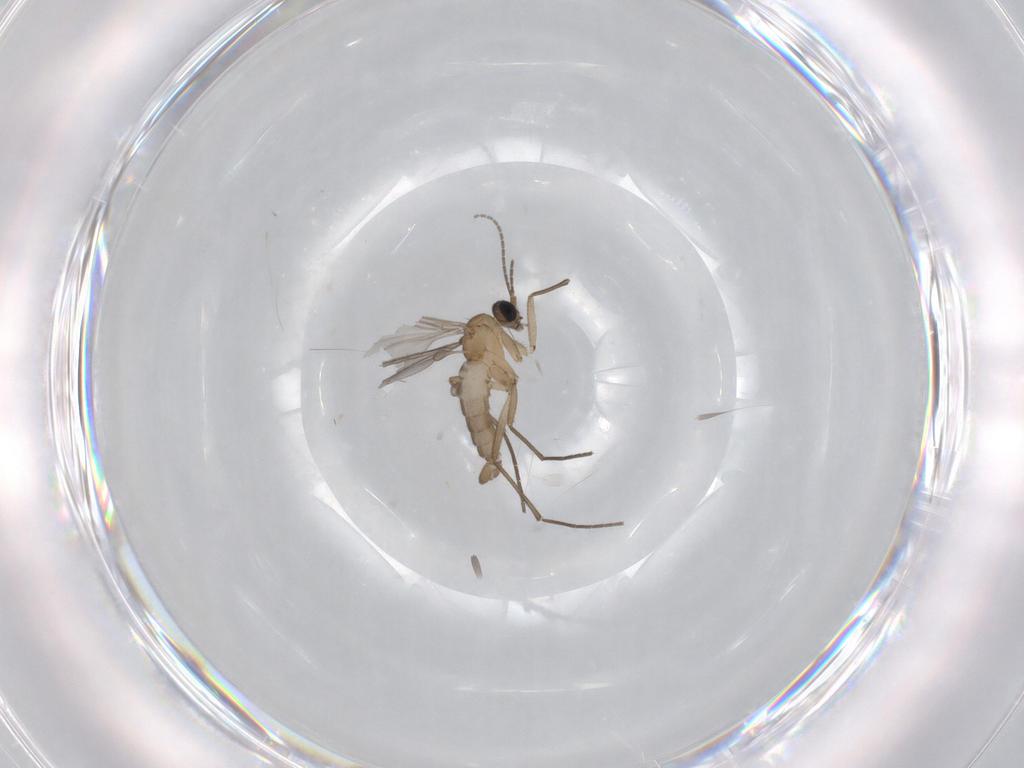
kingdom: Animalia
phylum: Arthropoda
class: Insecta
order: Diptera
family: Sciaridae
